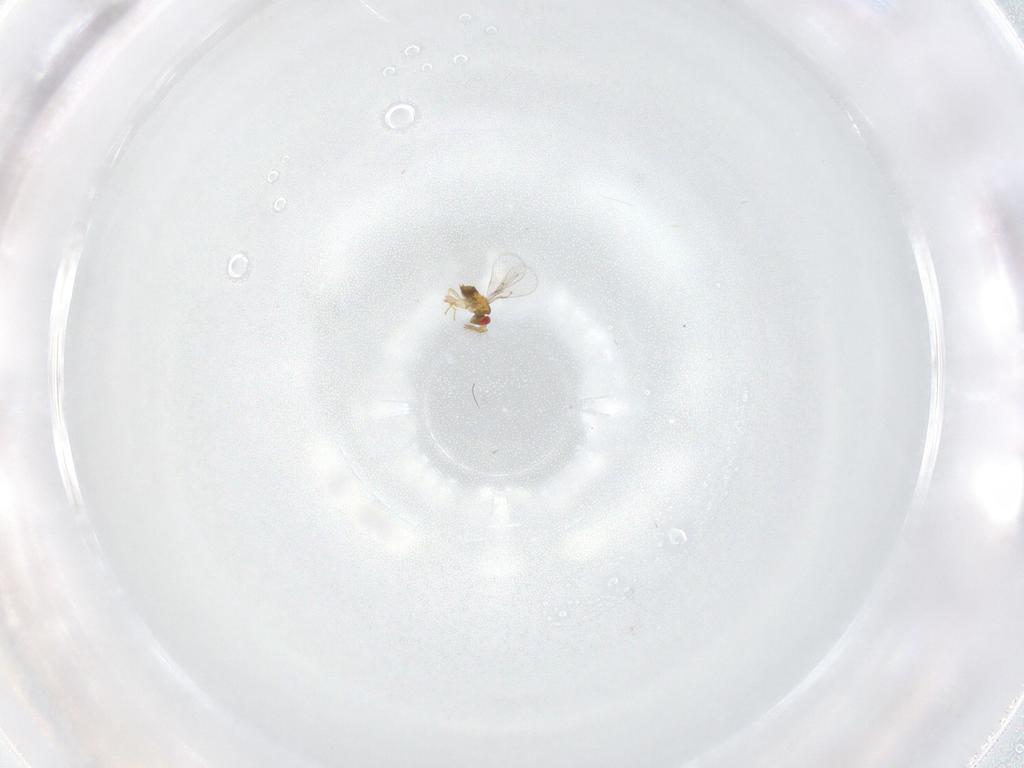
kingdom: Animalia
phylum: Arthropoda
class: Insecta
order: Hymenoptera
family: Trichogrammatidae
